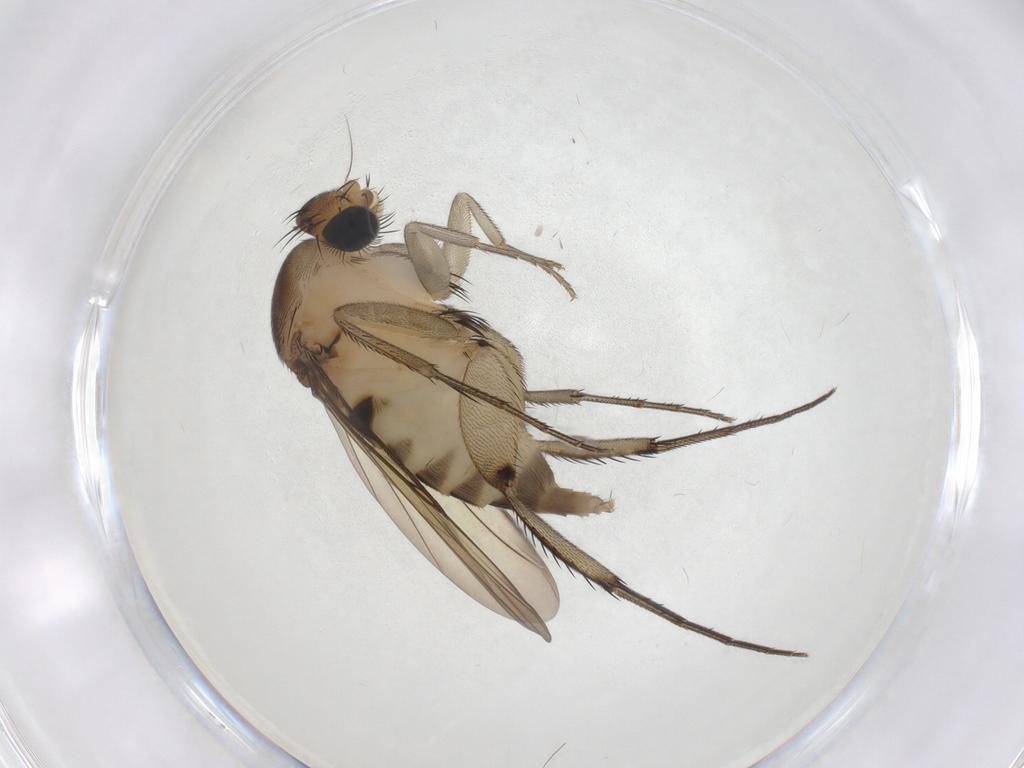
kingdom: Animalia
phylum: Arthropoda
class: Insecta
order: Diptera
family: Phoridae
